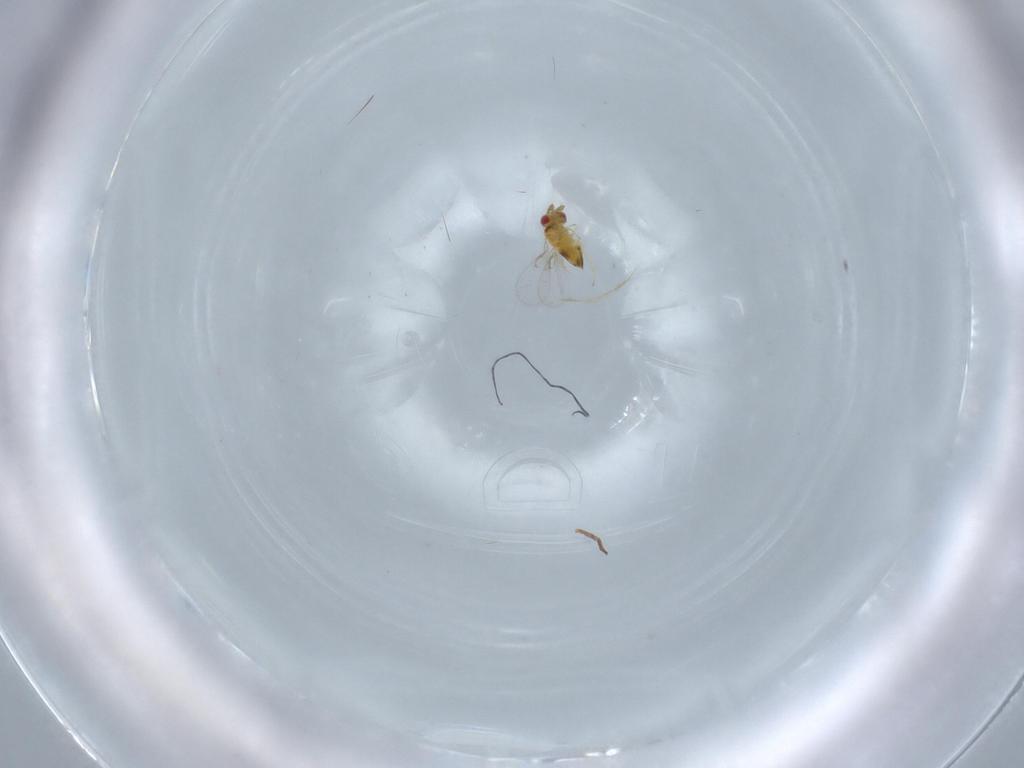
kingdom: Animalia
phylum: Arthropoda
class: Insecta
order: Hymenoptera
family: Trichogrammatidae
